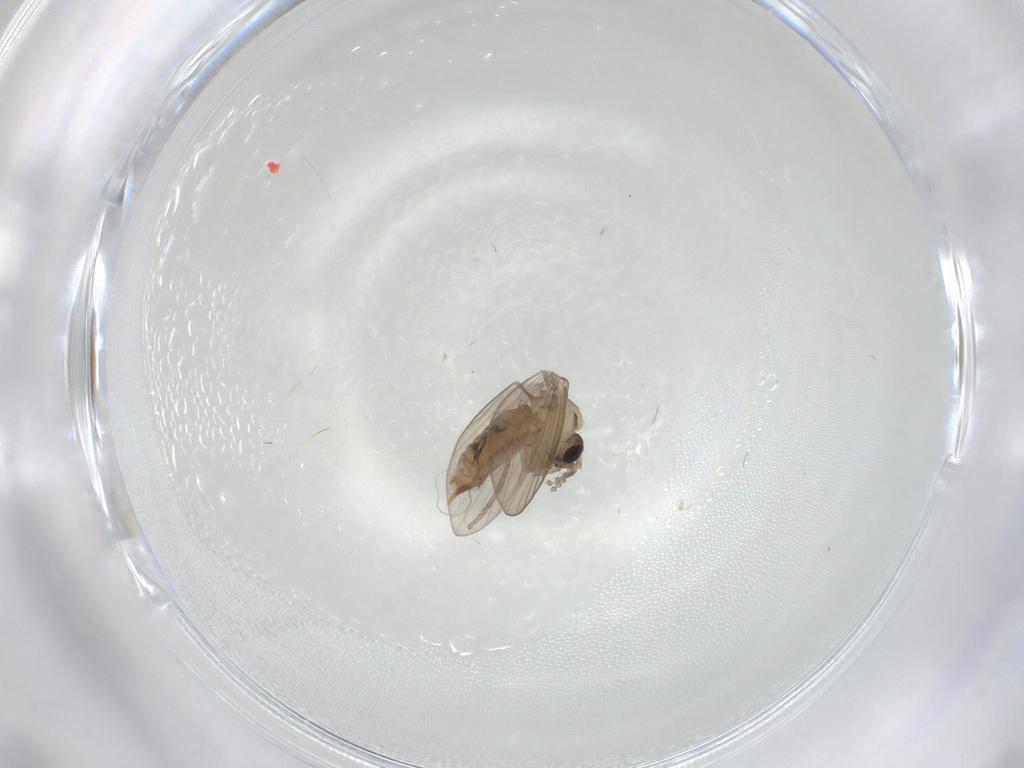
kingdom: Animalia
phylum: Arthropoda
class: Insecta
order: Diptera
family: Psychodidae
